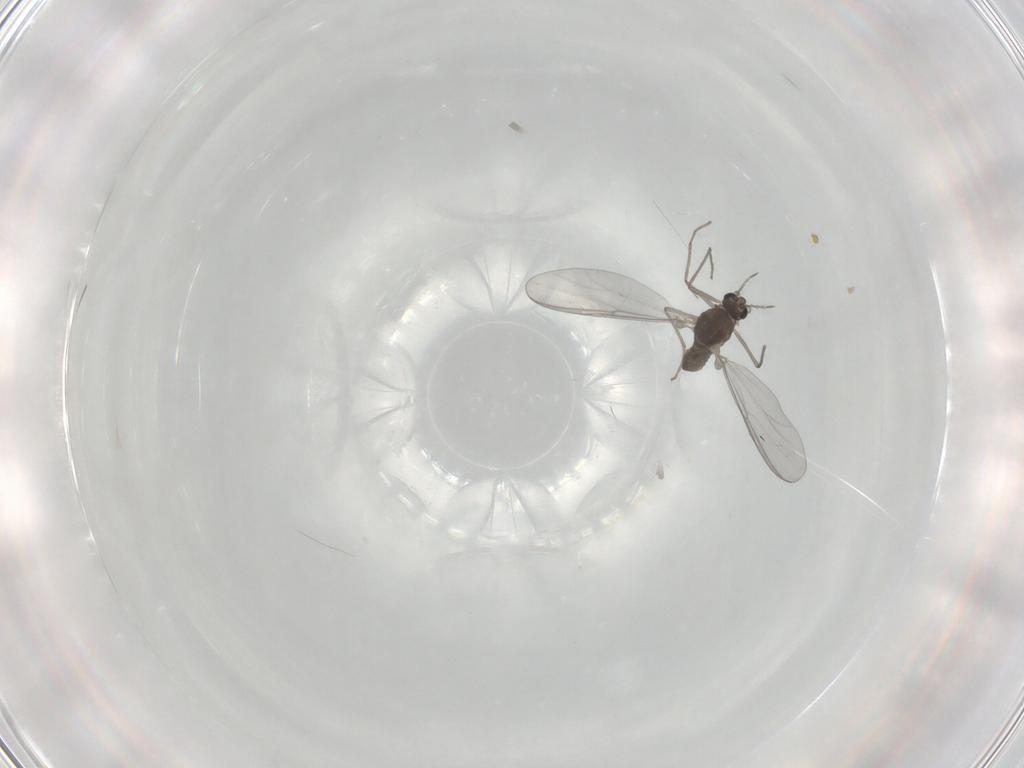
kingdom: Animalia
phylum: Arthropoda
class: Insecta
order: Diptera
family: Chironomidae
